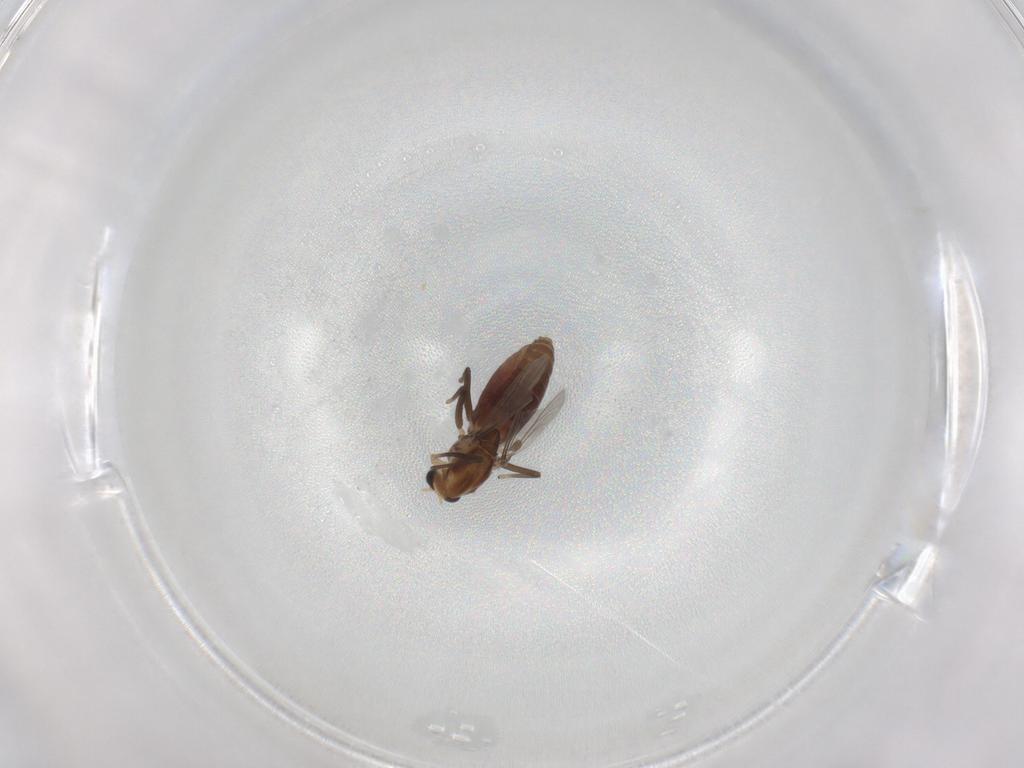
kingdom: Animalia
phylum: Arthropoda
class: Insecta
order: Diptera
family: Chironomidae
